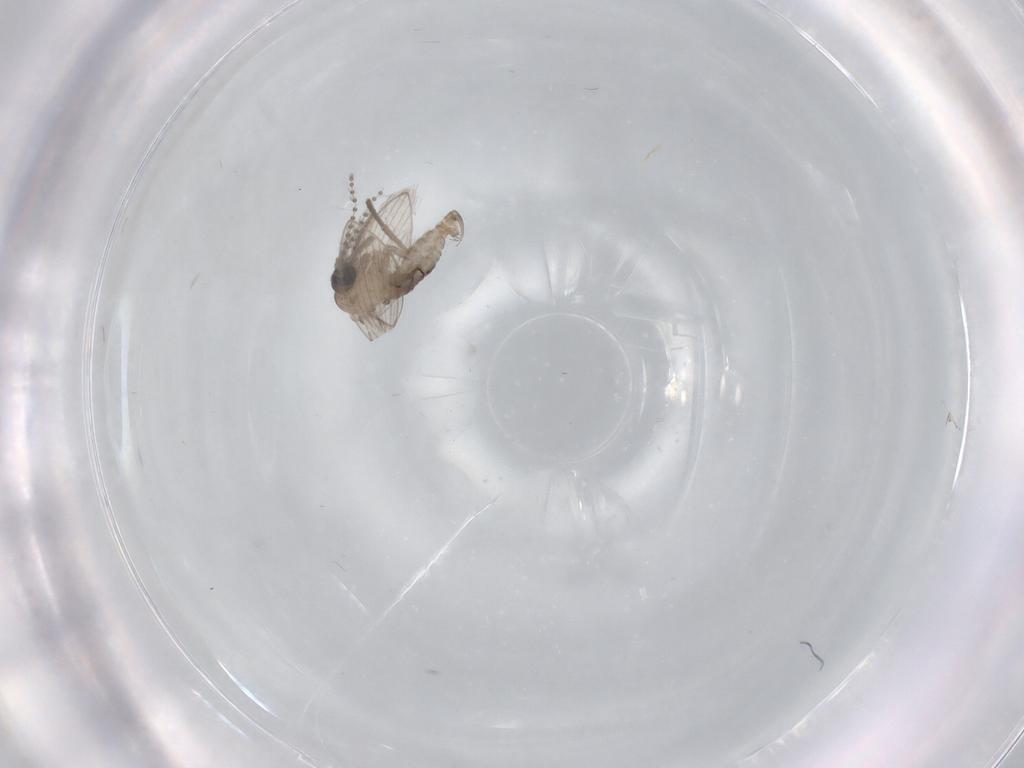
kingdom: Animalia
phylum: Arthropoda
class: Insecta
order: Diptera
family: Psychodidae
